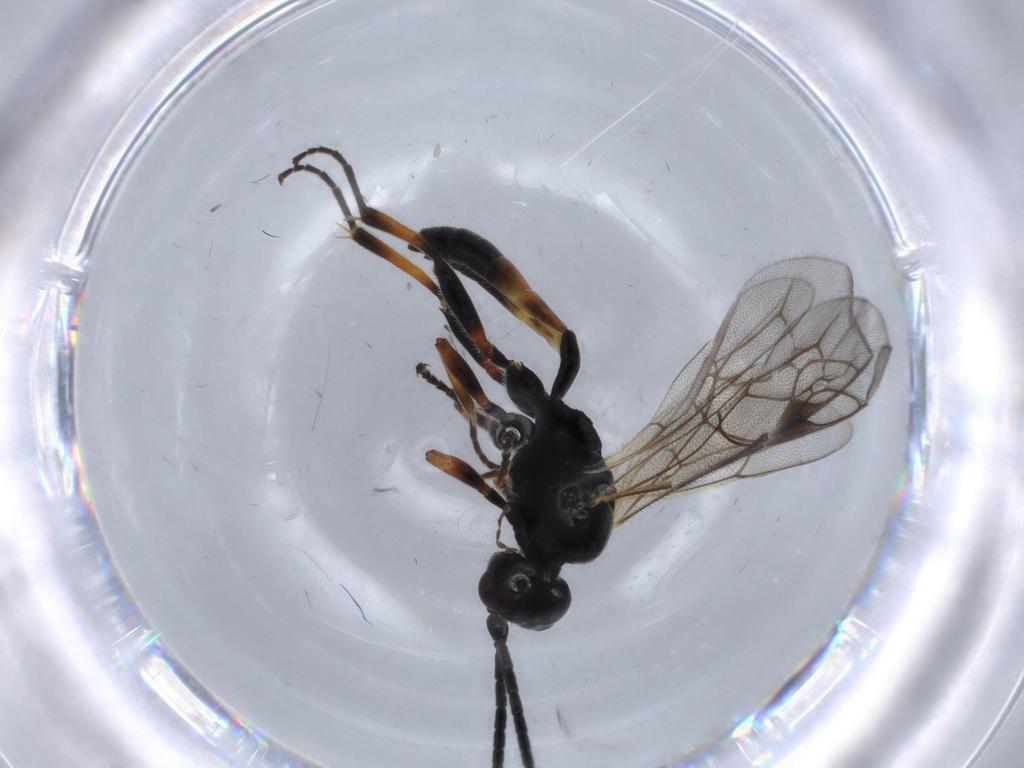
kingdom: Animalia
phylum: Arthropoda
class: Insecta
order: Hymenoptera
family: Ichneumonidae
